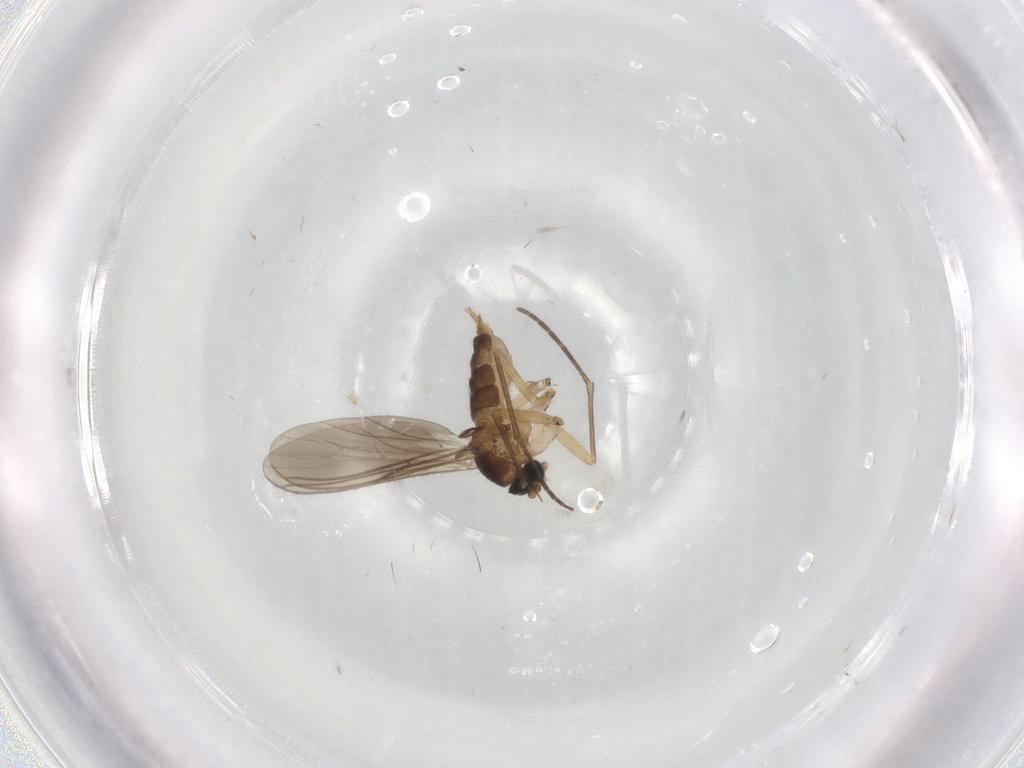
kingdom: Animalia
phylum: Arthropoda
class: Insecta
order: Diptera
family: Phoridae
